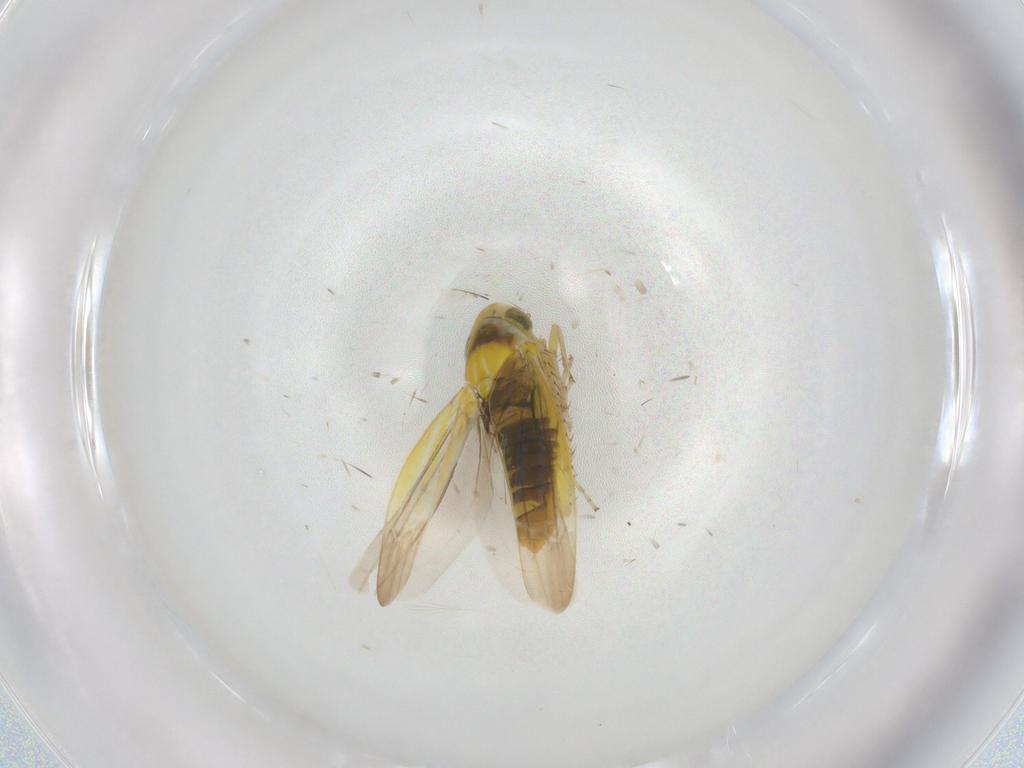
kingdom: Animalia
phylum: Arthropoda
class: Insecta
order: Hemiptera
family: Cicadellidae
